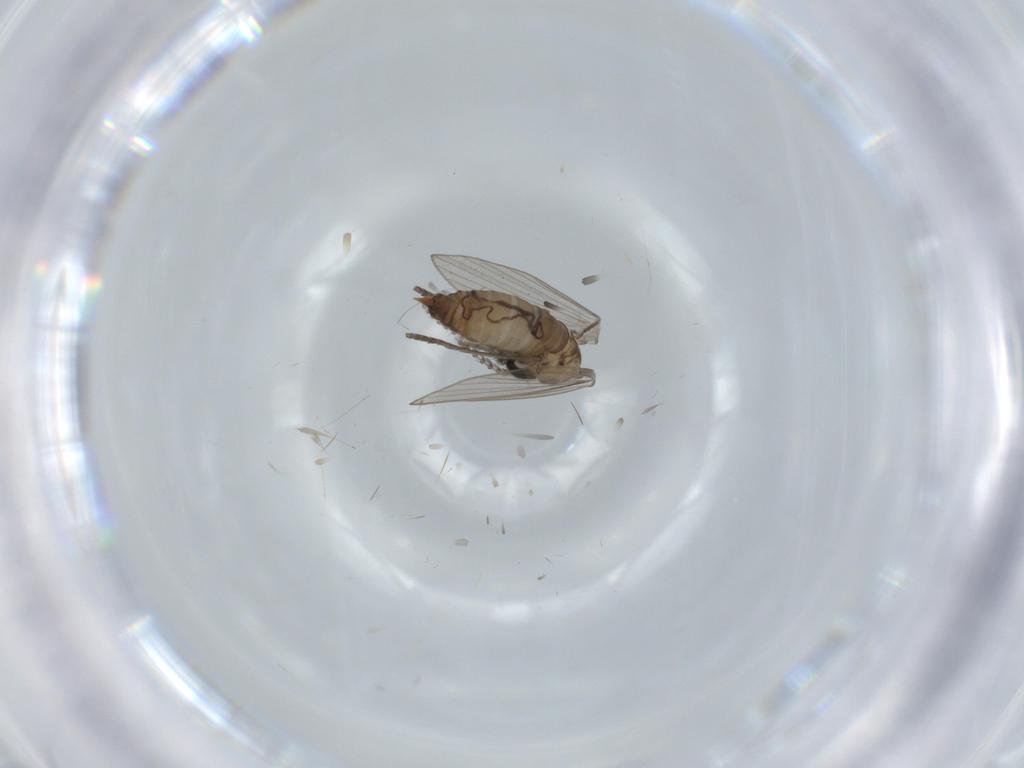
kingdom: Animalia
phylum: Arthropoda
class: Insecta
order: Diptera
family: Psychodidae
